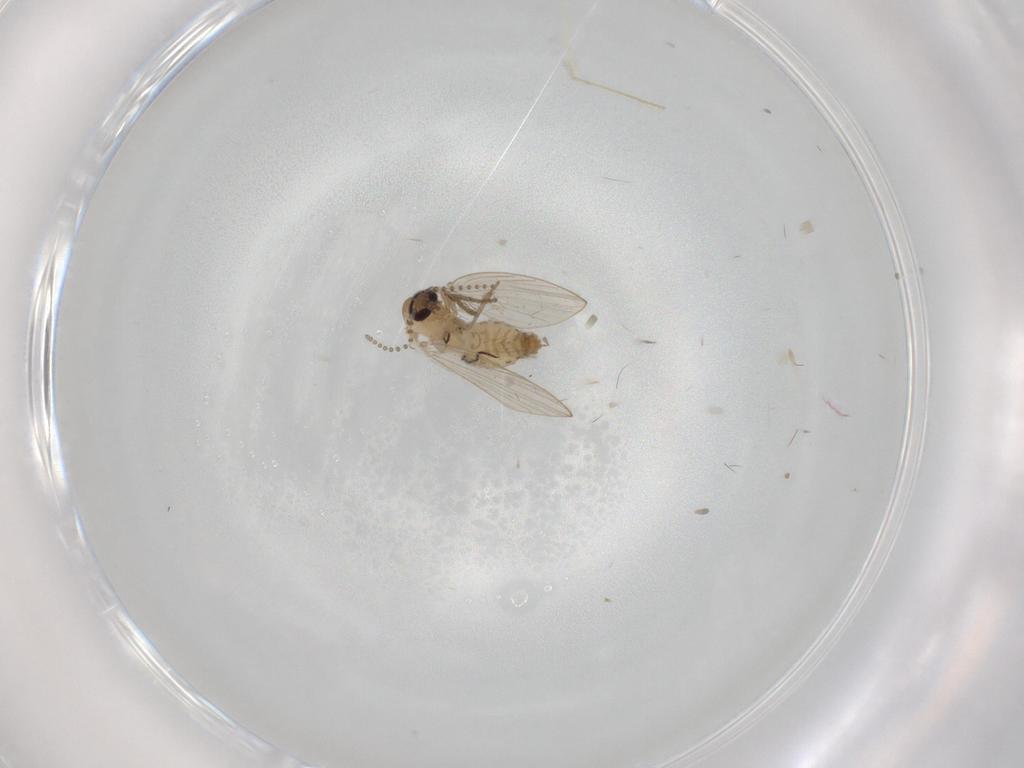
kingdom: Animalia
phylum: Arthropoda
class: Insecta
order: Diptera
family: Psychodidae
